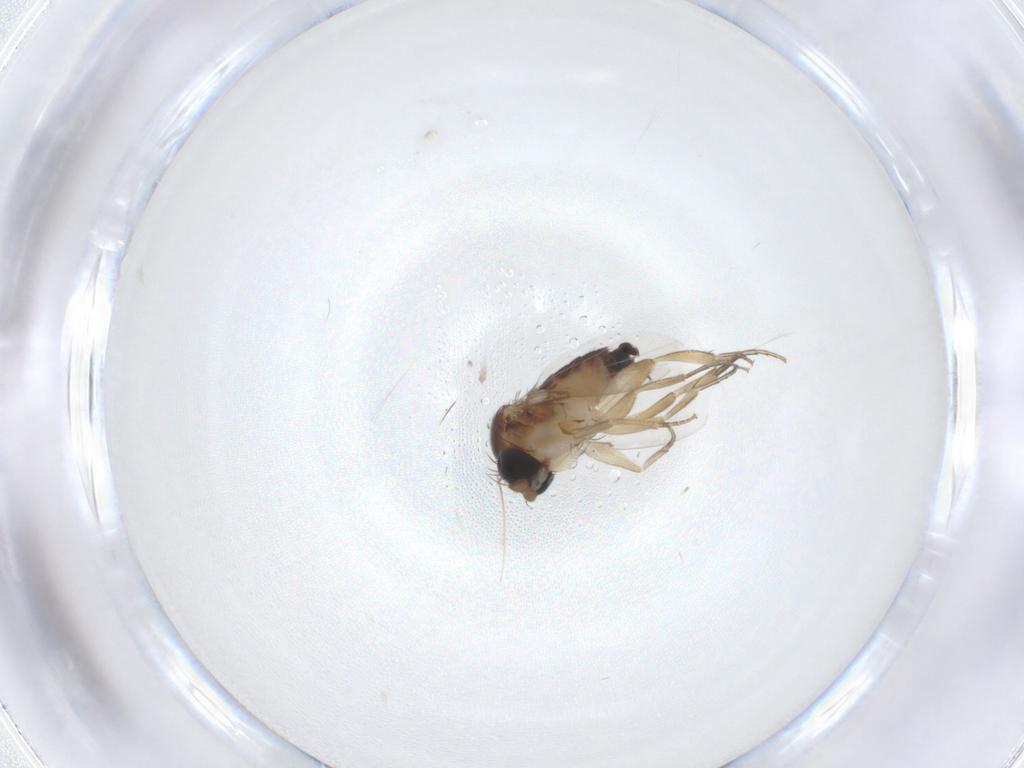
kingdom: Animalia
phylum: Arthropoda
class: Insecta
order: Diptera
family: Phoridae
